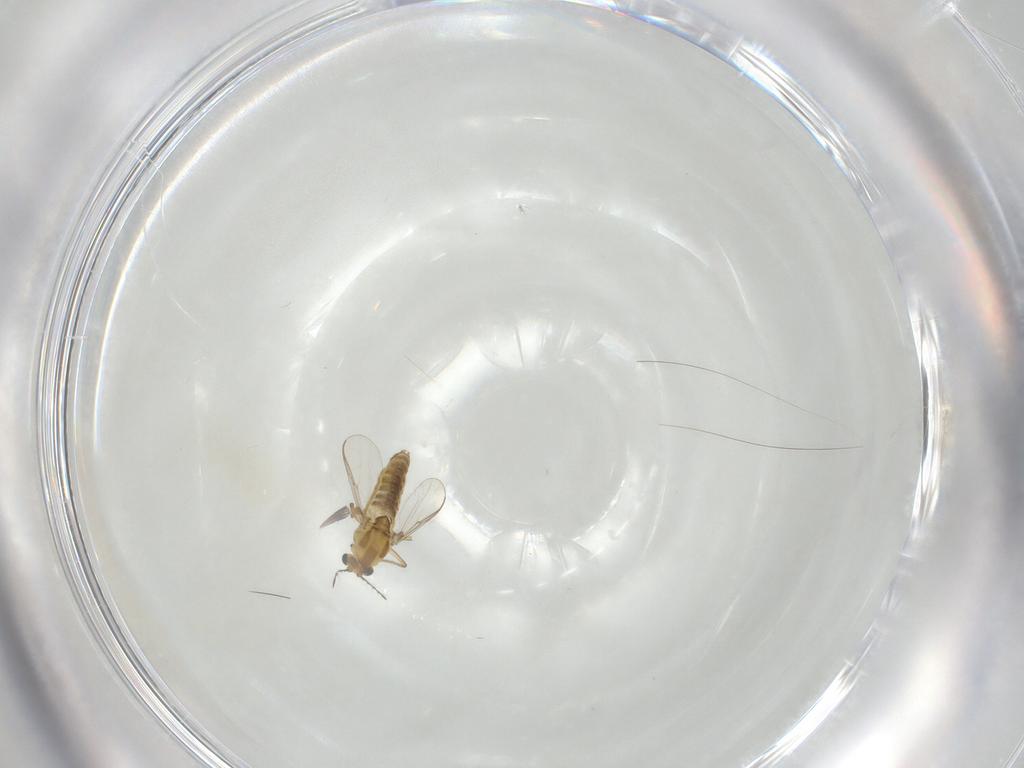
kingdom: Animalia
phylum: Arthropoda
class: Insecta
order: Diptera
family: Chironomidae
